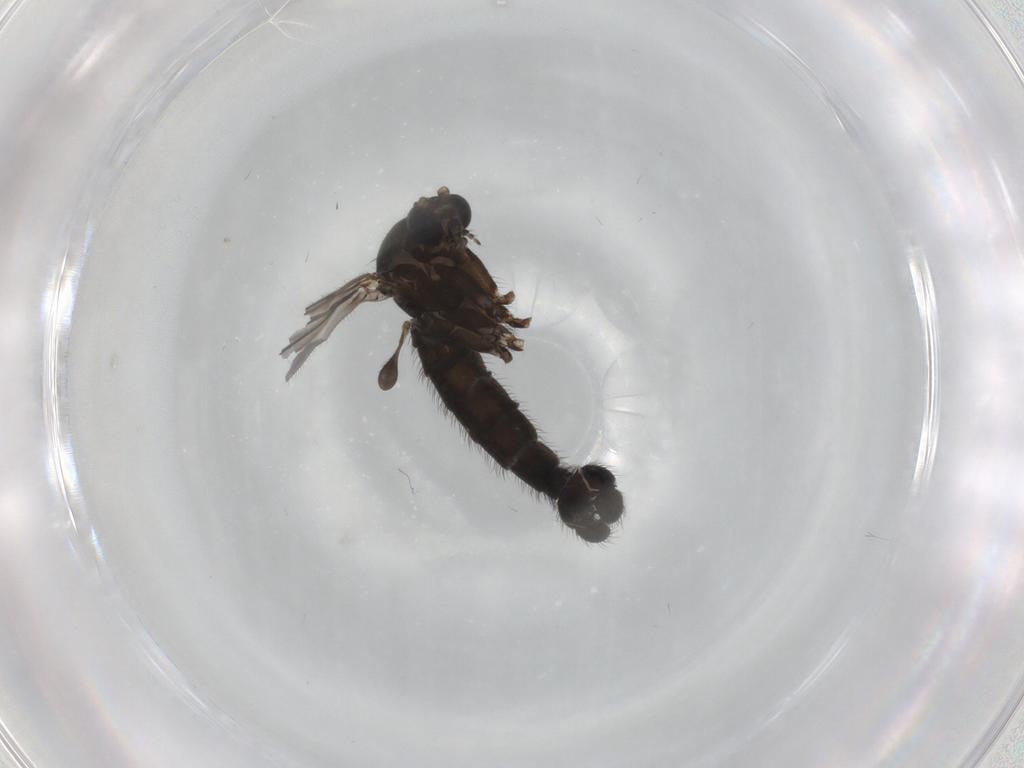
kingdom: Animalia
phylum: Arthropoda
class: Insecta
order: Diptera
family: Sciaridae
